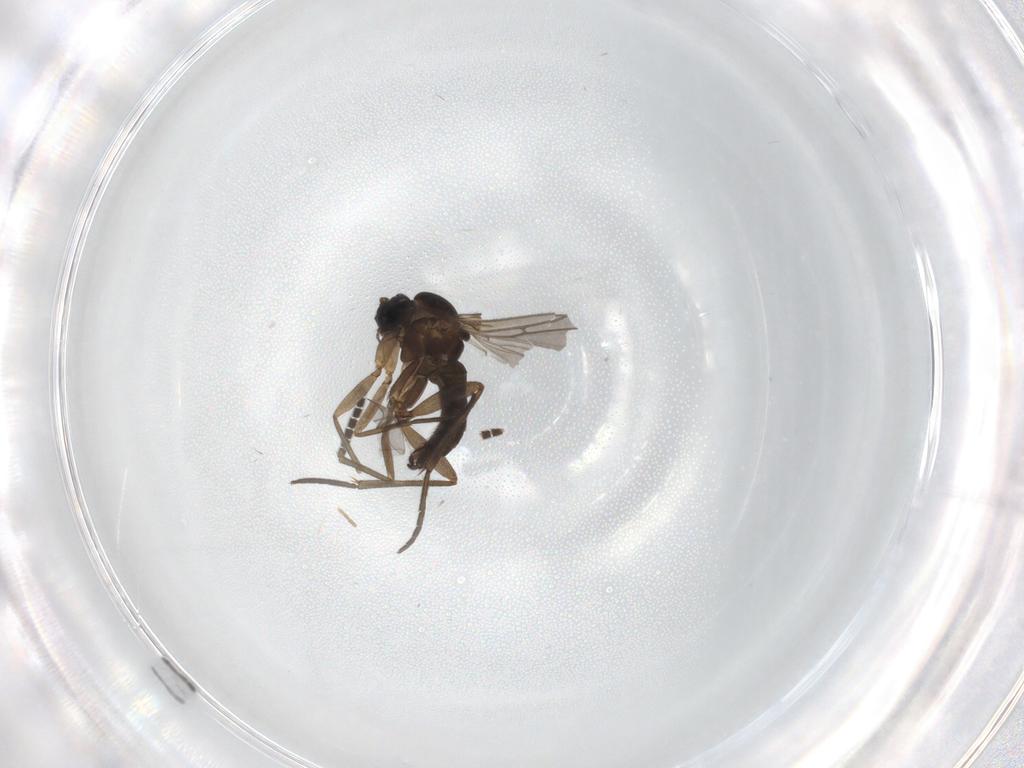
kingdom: Animalia
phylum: Arthropoda
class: Insecta
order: Diptera
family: Sciaridae
